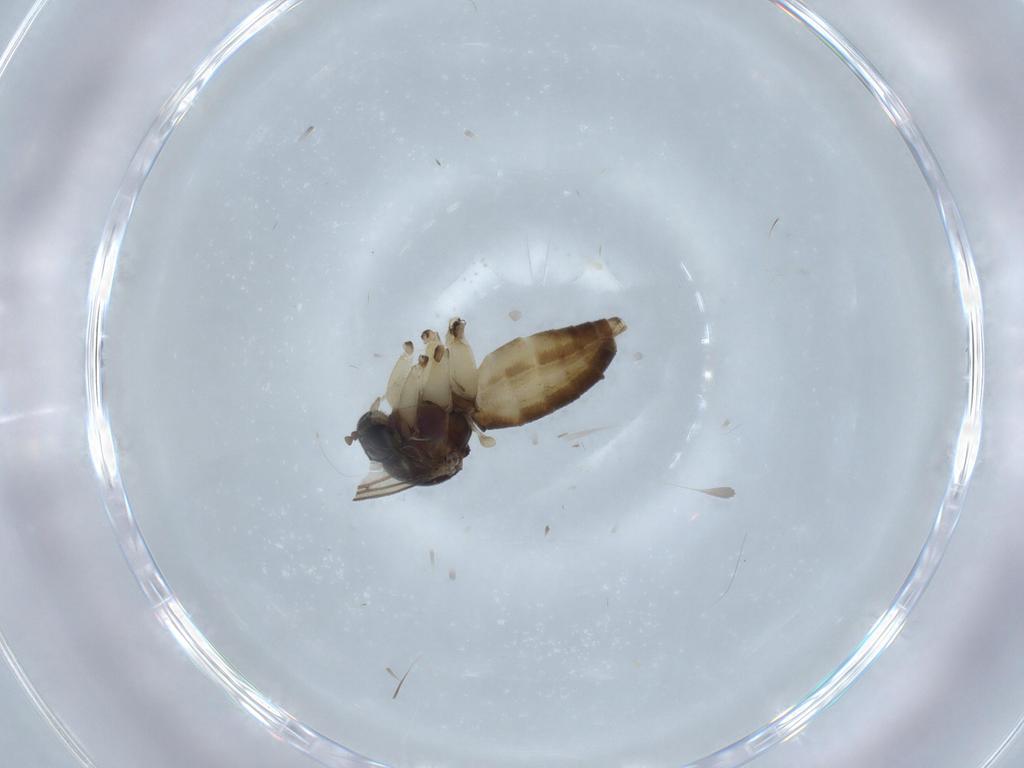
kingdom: Animalia
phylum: Arthropoda
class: Insecta
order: Diptera
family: Mycetophilidae
